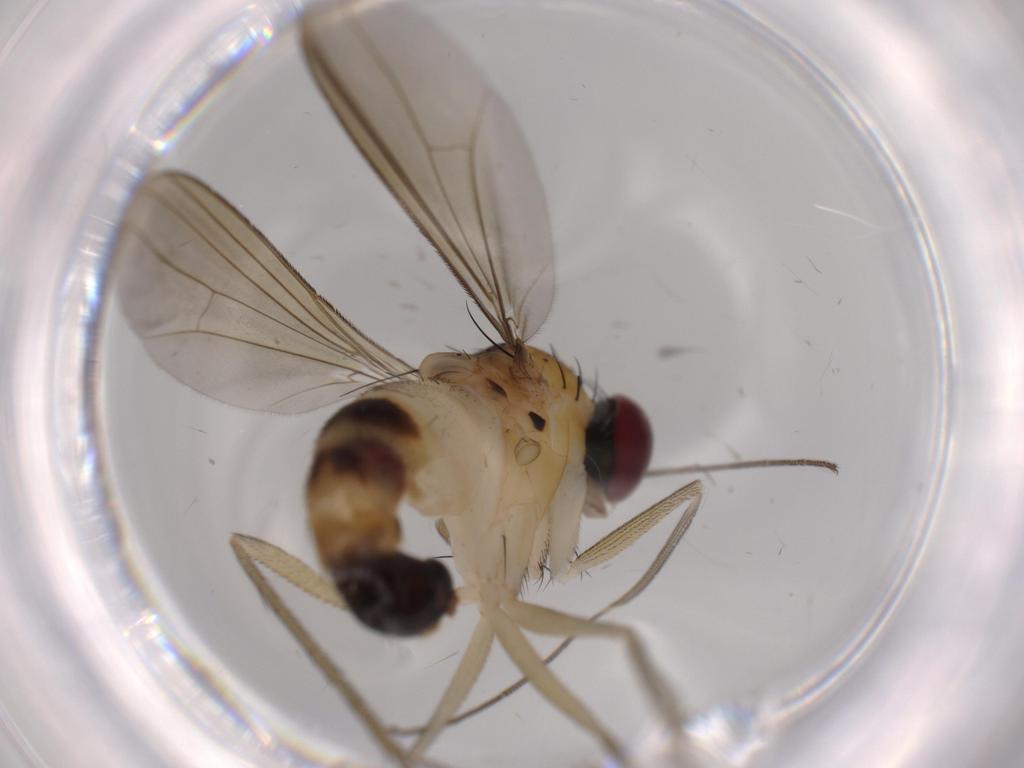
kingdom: Animalia
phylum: Arthropoda
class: Insecta
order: Diptera
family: Dolichopodidae
